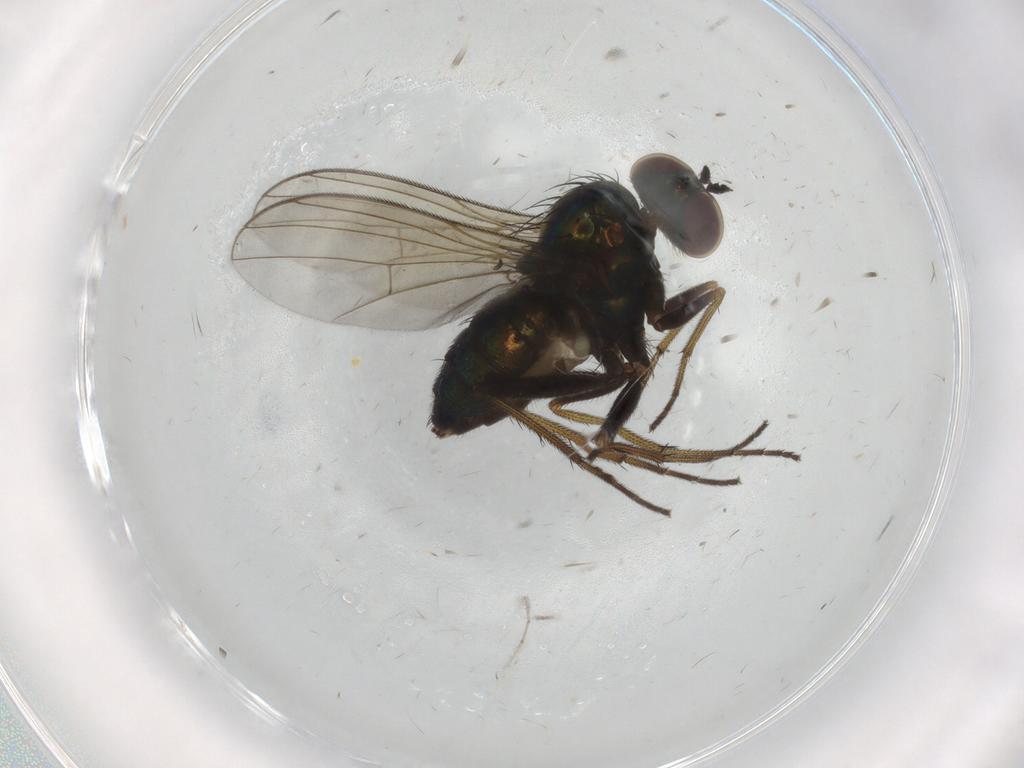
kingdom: Animalia
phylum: Arthropoda
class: Insecta
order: Diptera
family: Dolichopodidae
